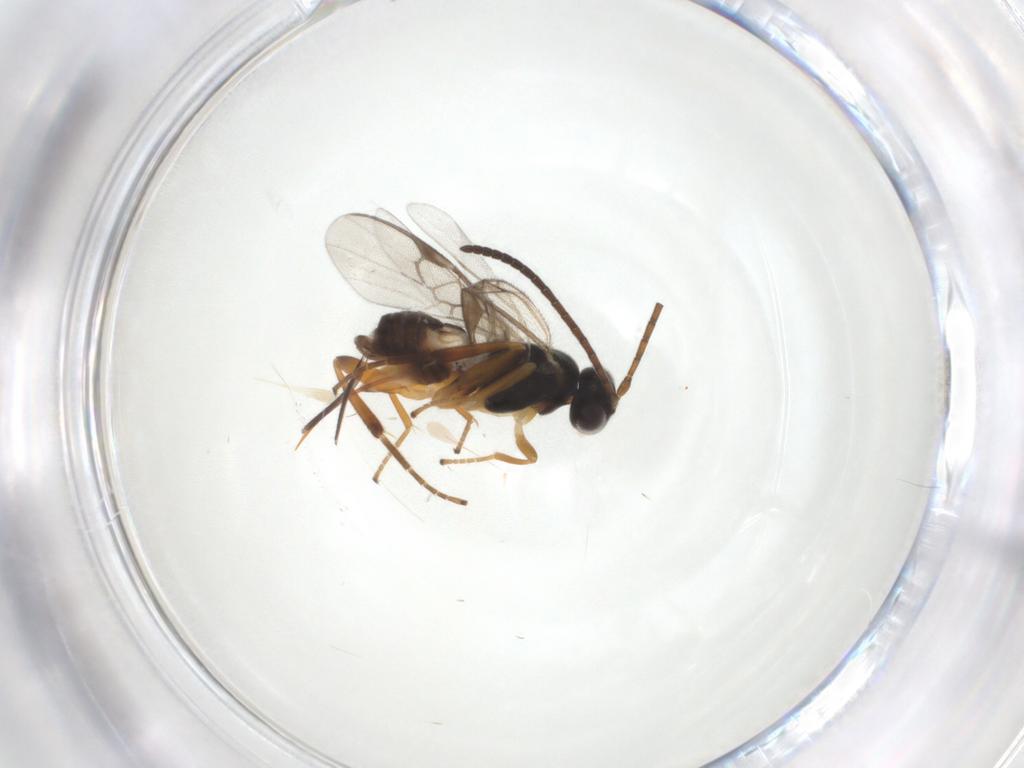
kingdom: Animalia
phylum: Arthropoda
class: Insecta
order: Hymenoptera
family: Braconidae
